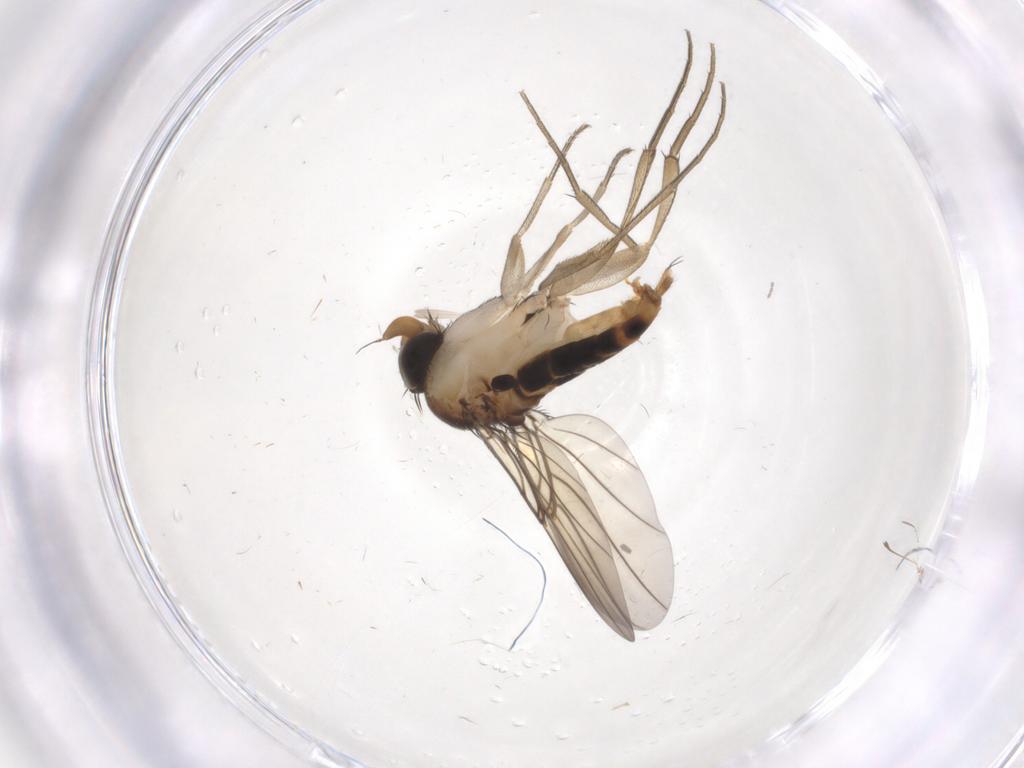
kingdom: Animalia
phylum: Arthropoda
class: Insecta
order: Diptera
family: Phoridae
